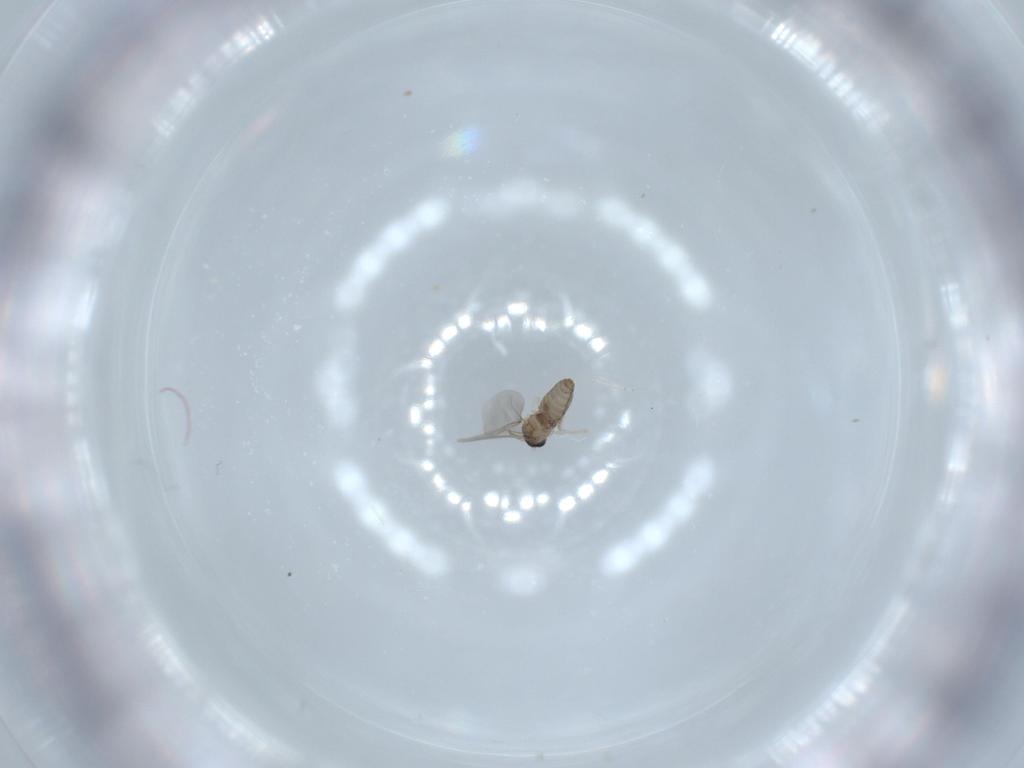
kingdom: Animalia
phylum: Arthropoda
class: Insecta
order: Diptera
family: Cecidomyiidae
